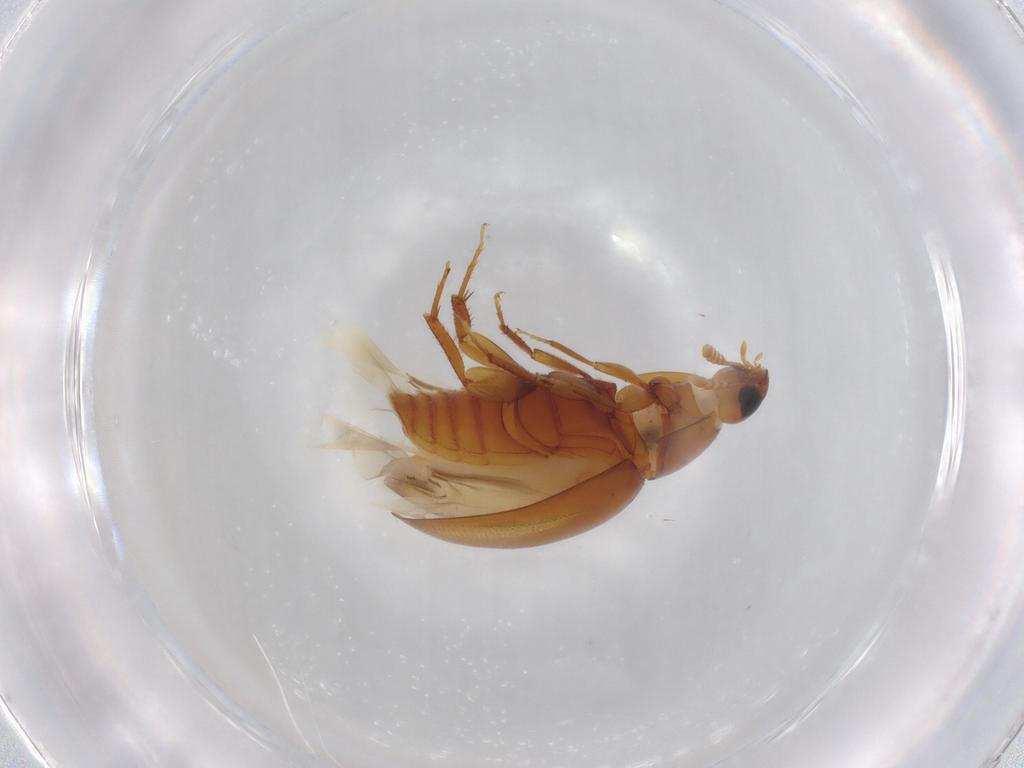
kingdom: Animalia
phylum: Arthropoda
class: Insecta
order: Coleoptera
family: Phalacridae
